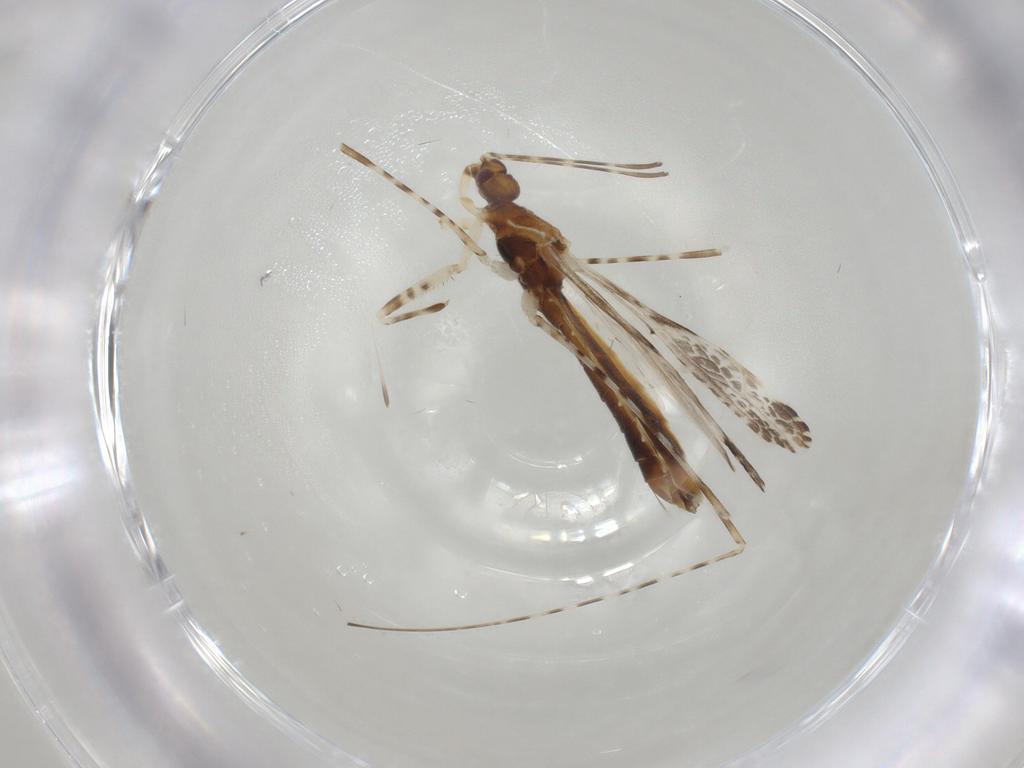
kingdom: Animalia
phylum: Arthropoda
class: Insecta
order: Hemiptera
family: Reduviidae
